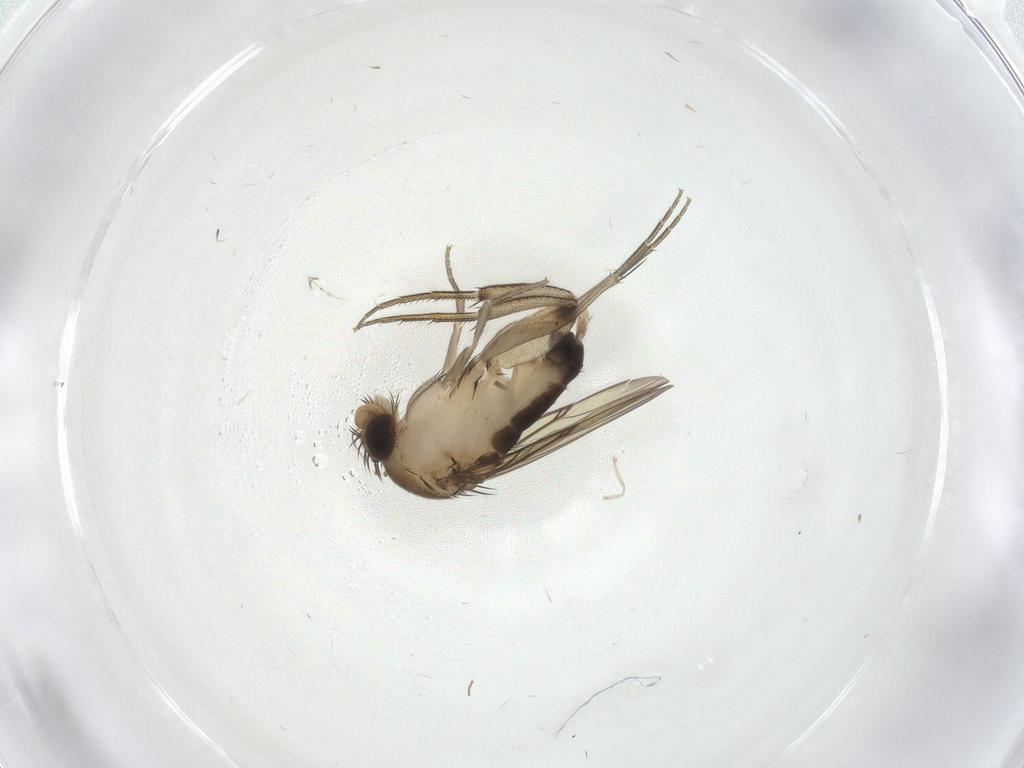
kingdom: Animalia
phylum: Arthropoda
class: Insecta
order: Diptera
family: Phoridae
